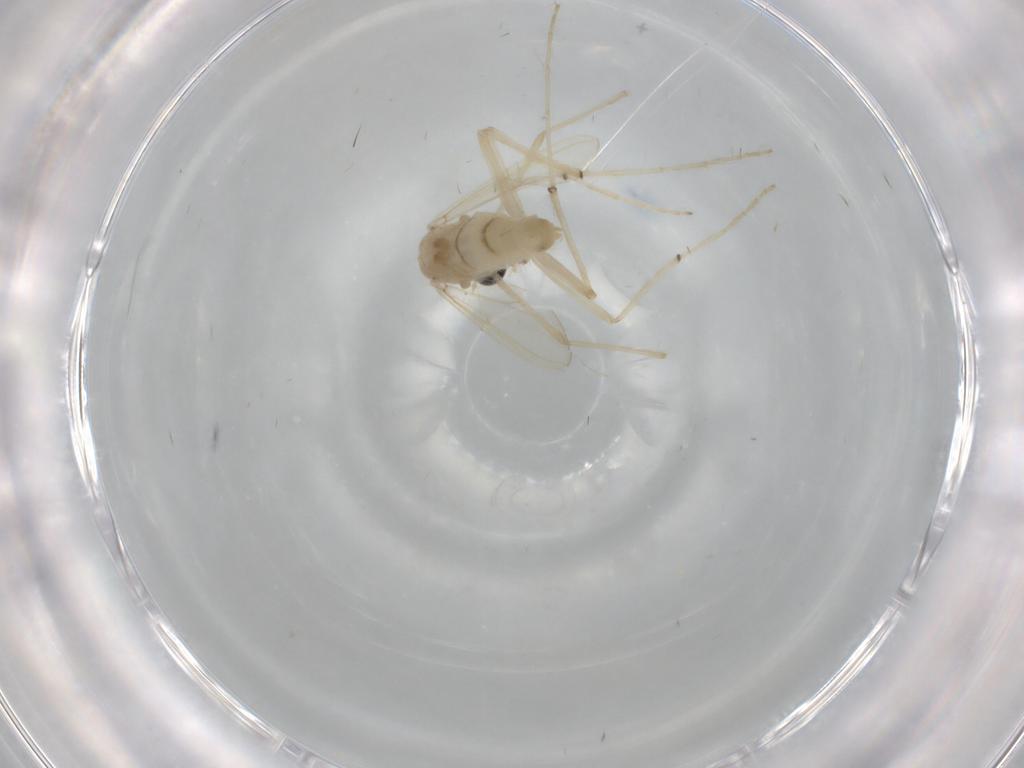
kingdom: Animalia
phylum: Arthropoda
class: Insecta
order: Diptera
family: Chironomidae
